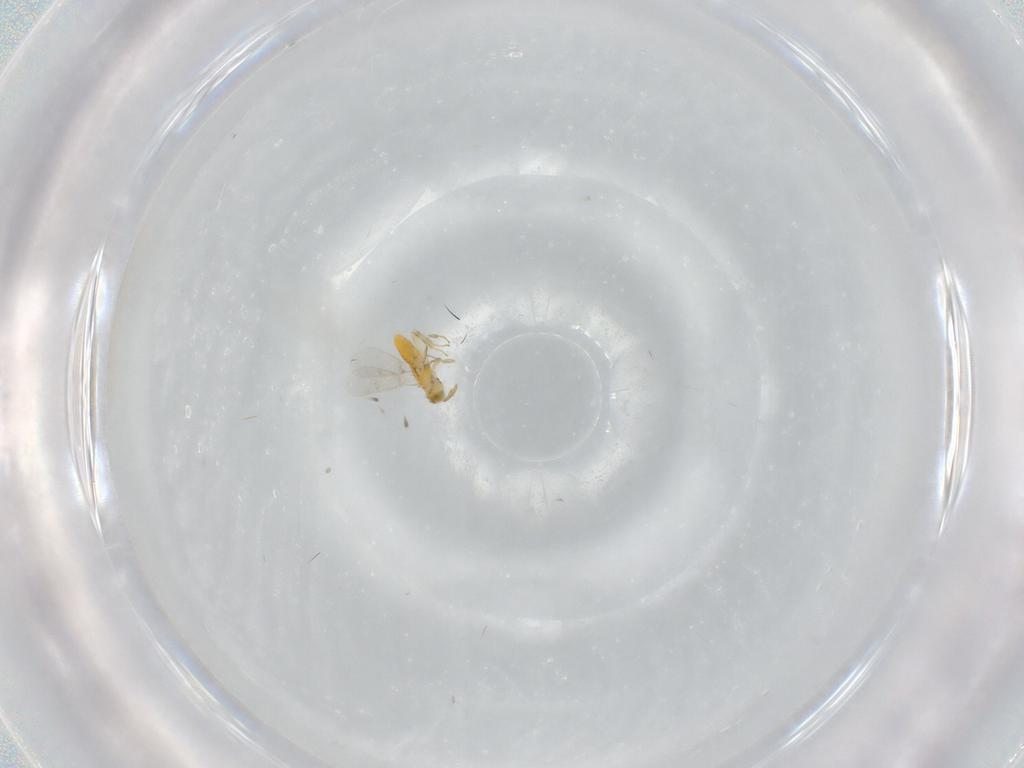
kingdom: Animalia
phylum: Arthropoda
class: Insecta
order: Hymenoptera
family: Aphelinidae
